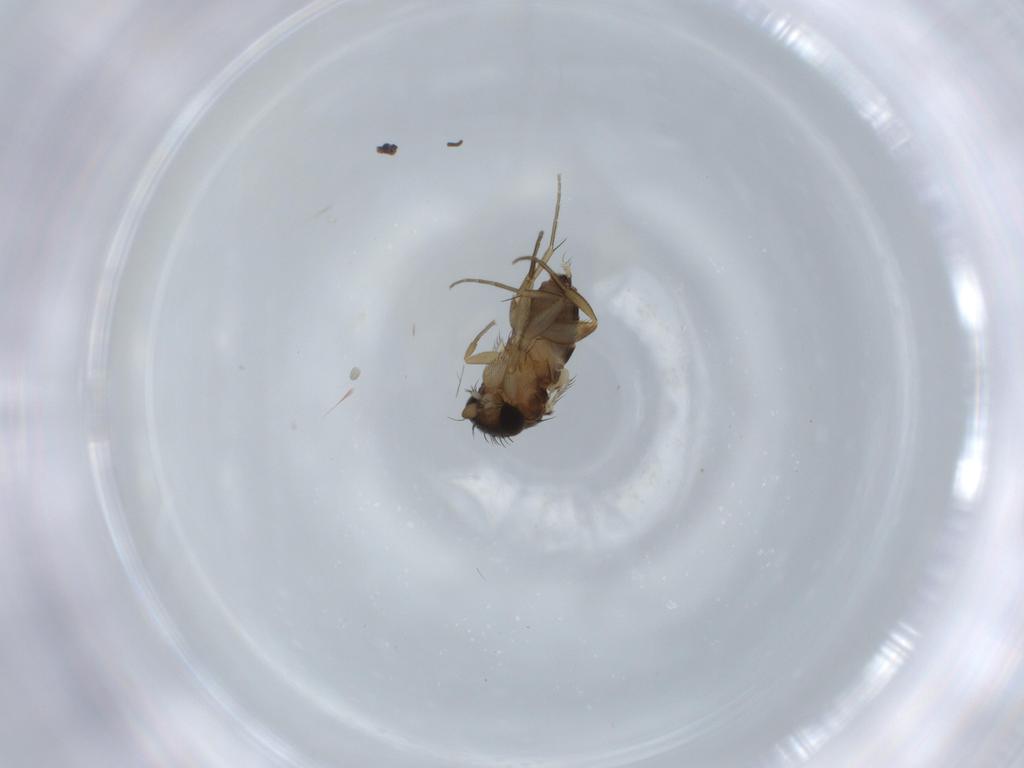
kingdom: Animalia
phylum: Arthropoda
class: Insecta
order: Diptera
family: Phoridae
